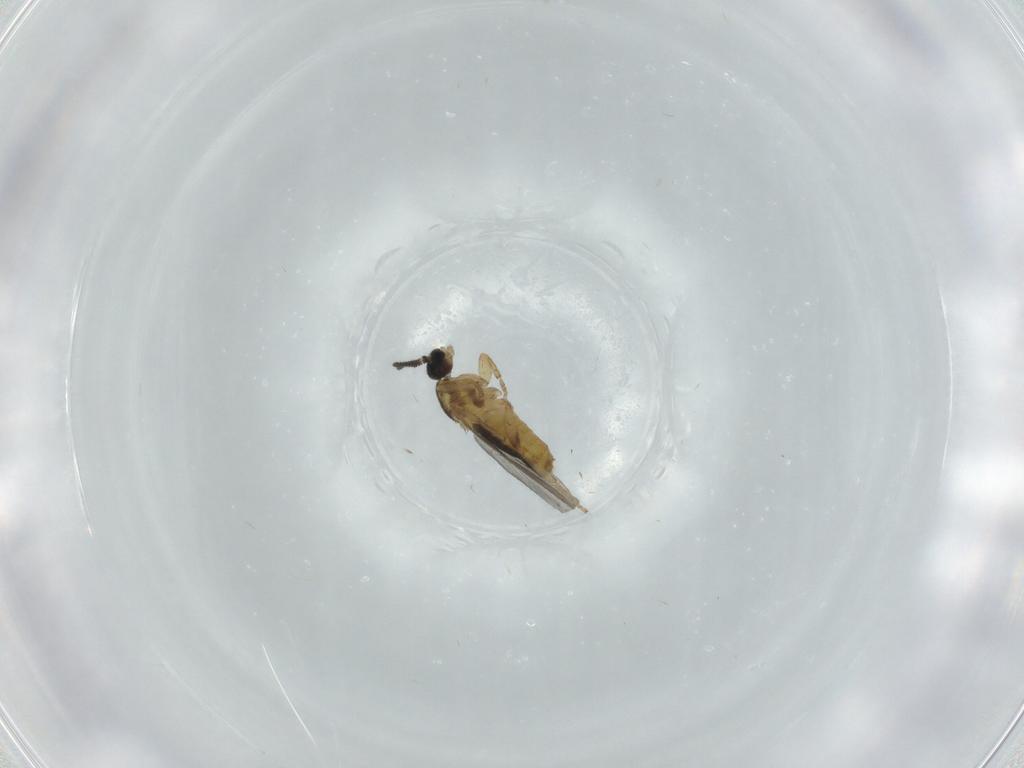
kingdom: Animalia
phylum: Arthropoda
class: Insecta
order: Diptera
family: Scatopsidae
